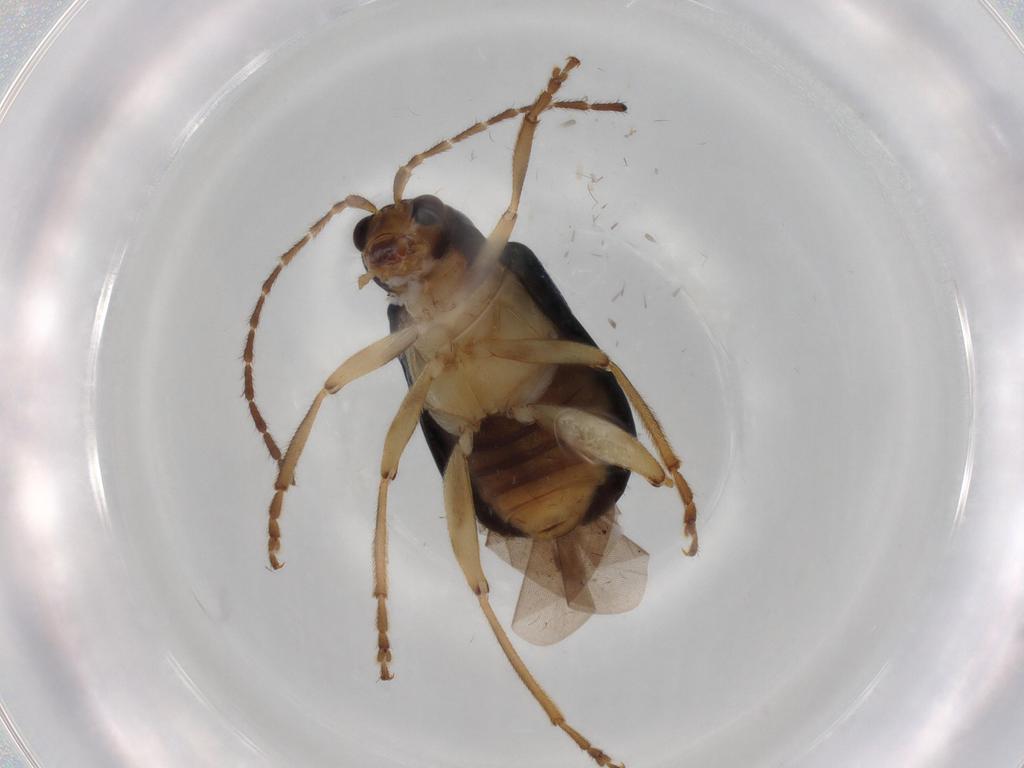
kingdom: Animalia
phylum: Arthropoda
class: Insecta
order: Coleoptera
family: Chrysomelidae
